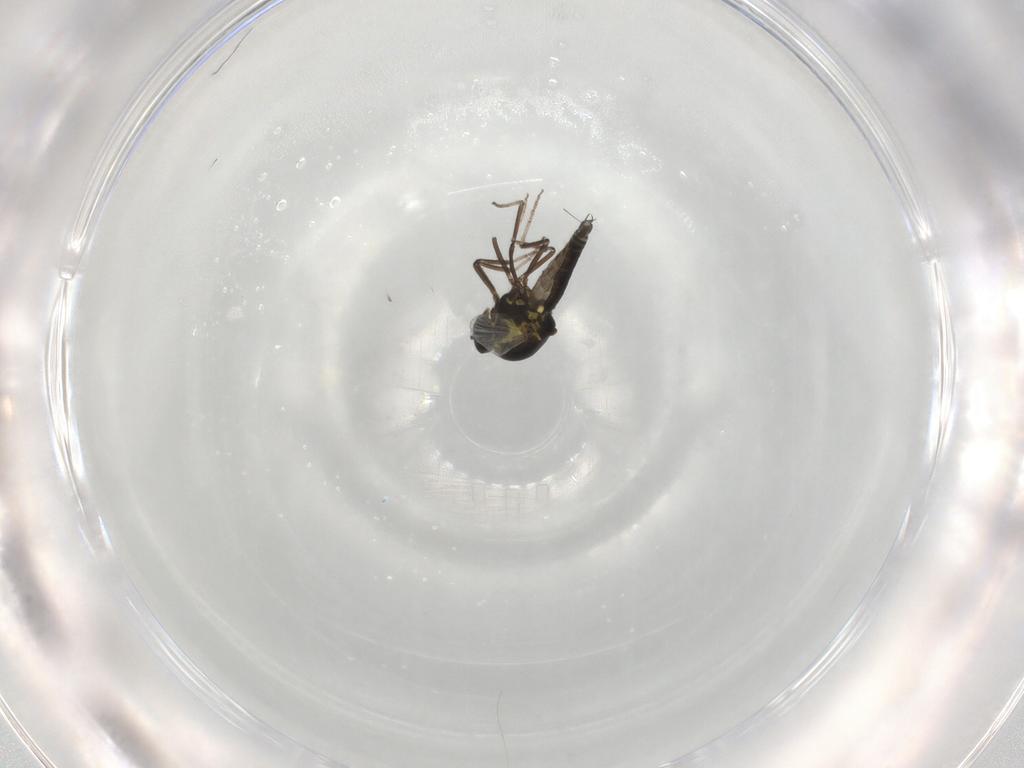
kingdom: Animalia
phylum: Arthropoda
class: Insecta
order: Diptera
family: Ceratopogonidae
